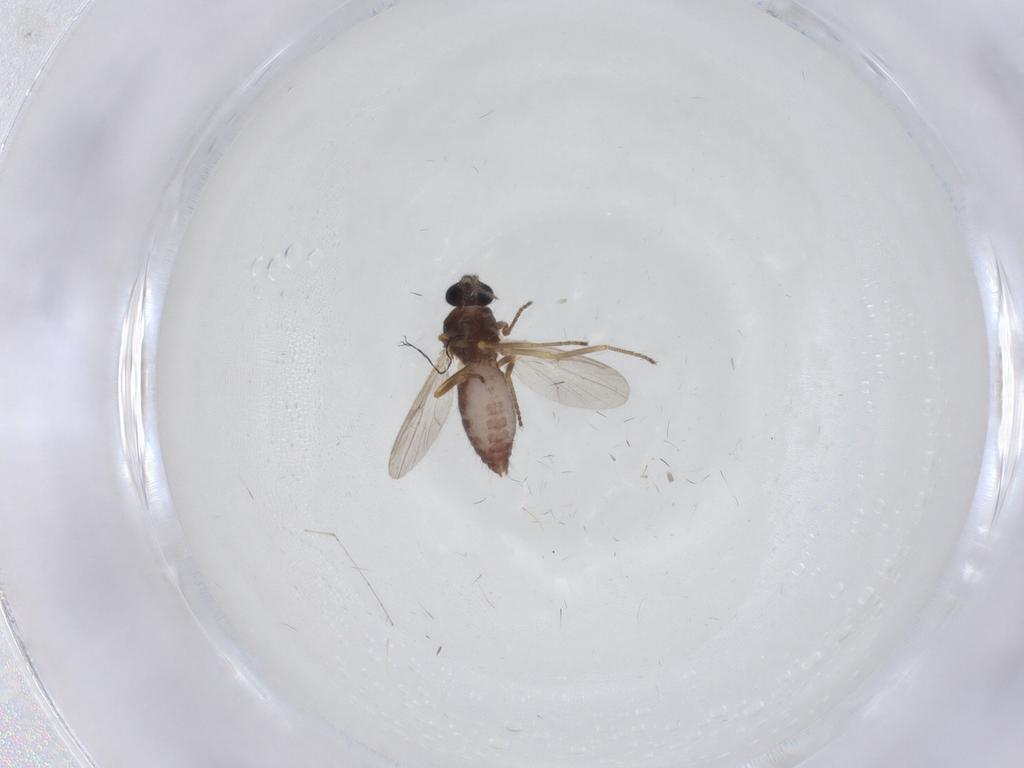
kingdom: Animalia
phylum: Arthropoda
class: Insecta
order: Diptera
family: Ceratopogonidae
